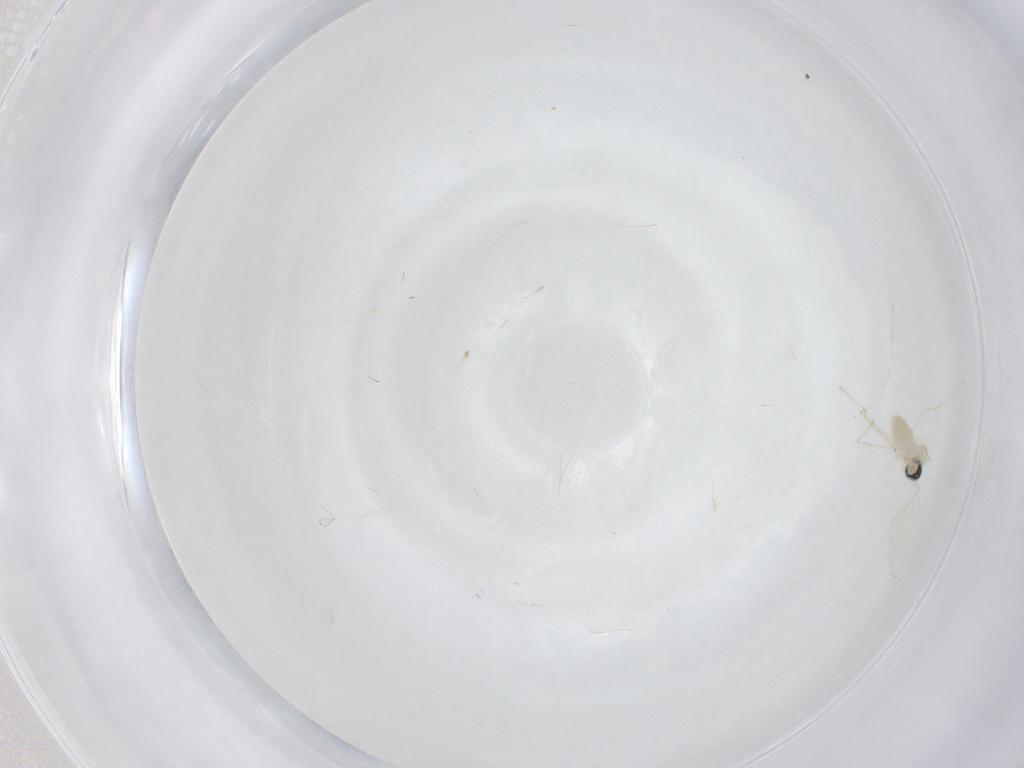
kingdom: Animalia
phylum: Arthropoda
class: Insecta
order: Diptera
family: Cecidomyiidae
